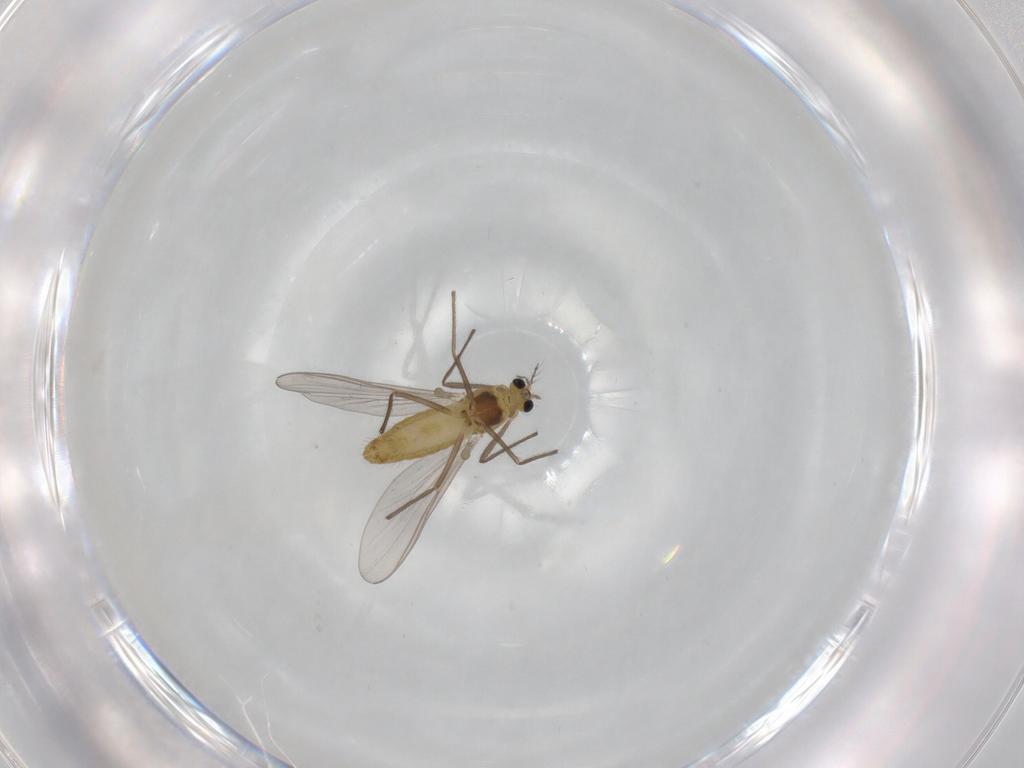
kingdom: Animalia
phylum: Arthropoda
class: Insecta
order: Diptera
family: Chironomidae
